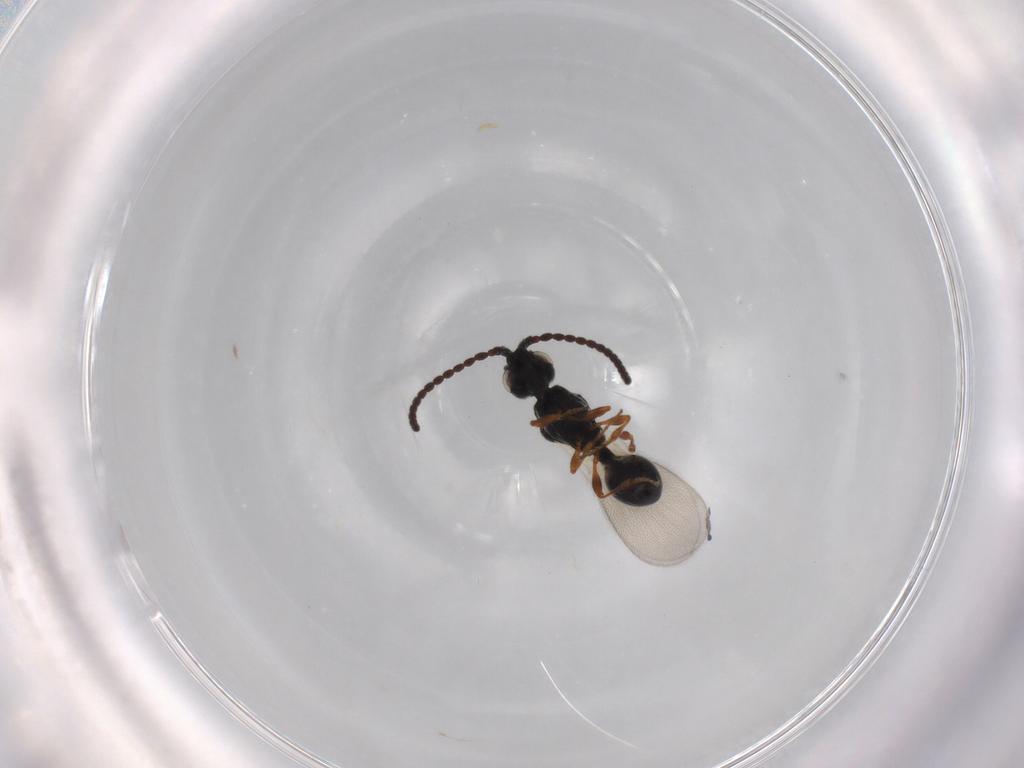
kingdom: Animalia
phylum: Arthropoda
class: Insecta
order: Hymenoptera
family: Diapriidae
